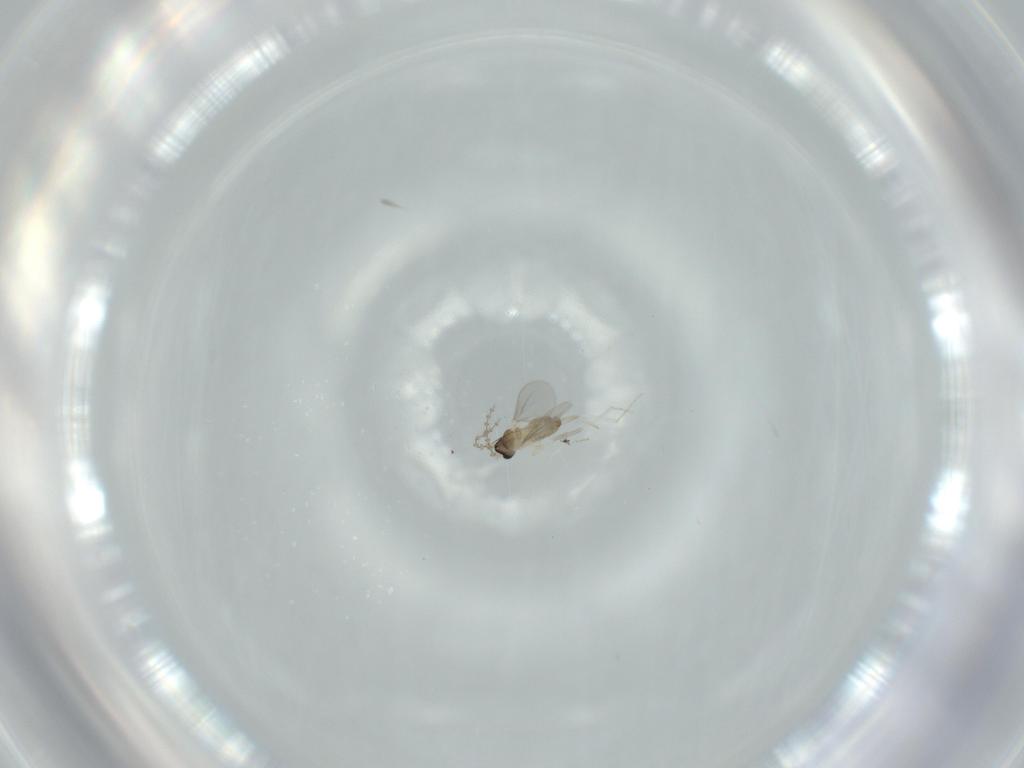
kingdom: Animalia
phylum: Arthropoda
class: Insecta
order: Diptera
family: Cecidomyiidae
